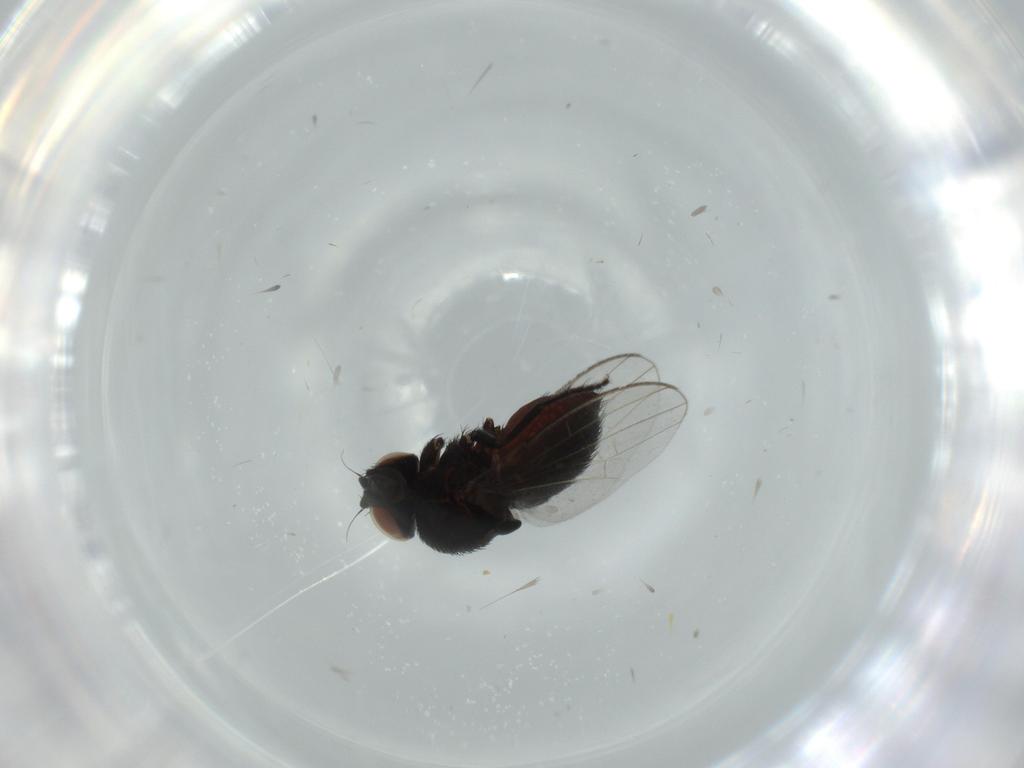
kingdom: Animalia
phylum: Arthropoda
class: Insecta
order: Diptera
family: Milichiidae
